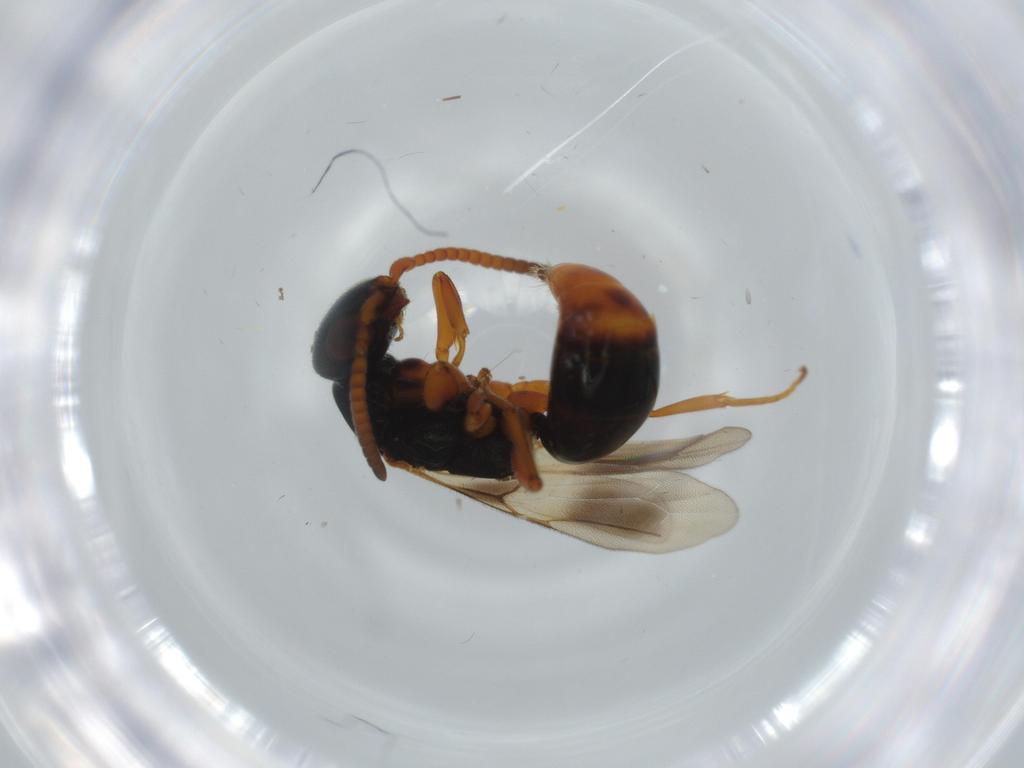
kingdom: Animalia
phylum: Arthropoda
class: Insecta
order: Hymenoptera
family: Bethylidae
